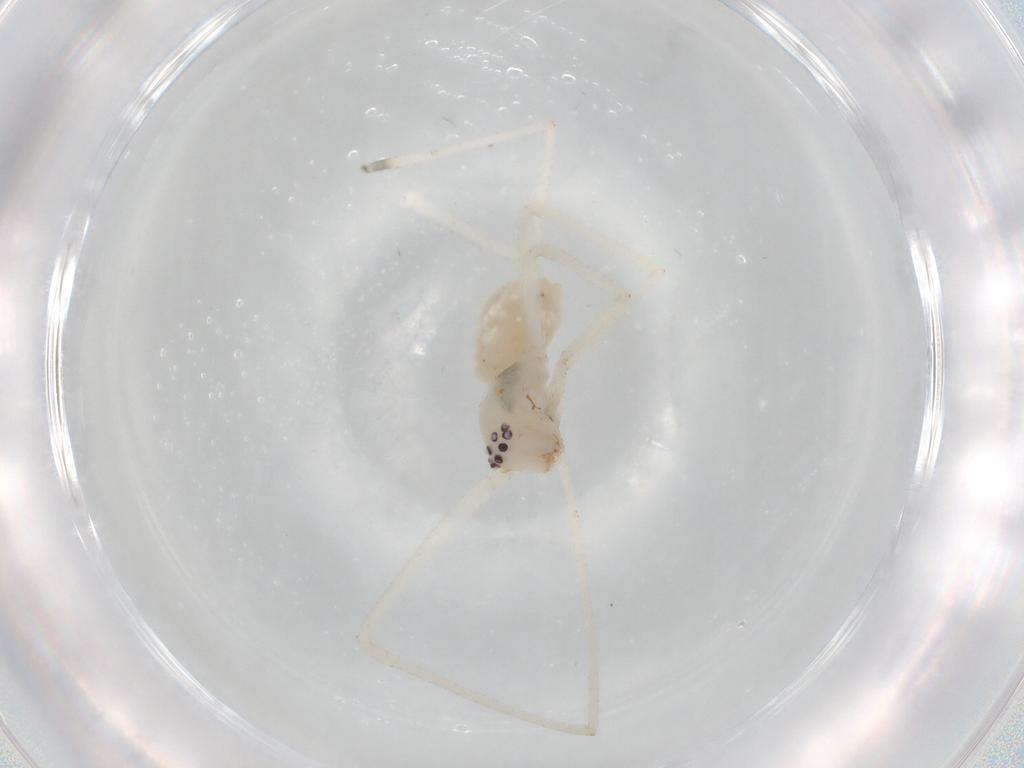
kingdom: Animalia
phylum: Arthropoda
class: Arachnida
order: Araneae
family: Cheiracanthiidae
